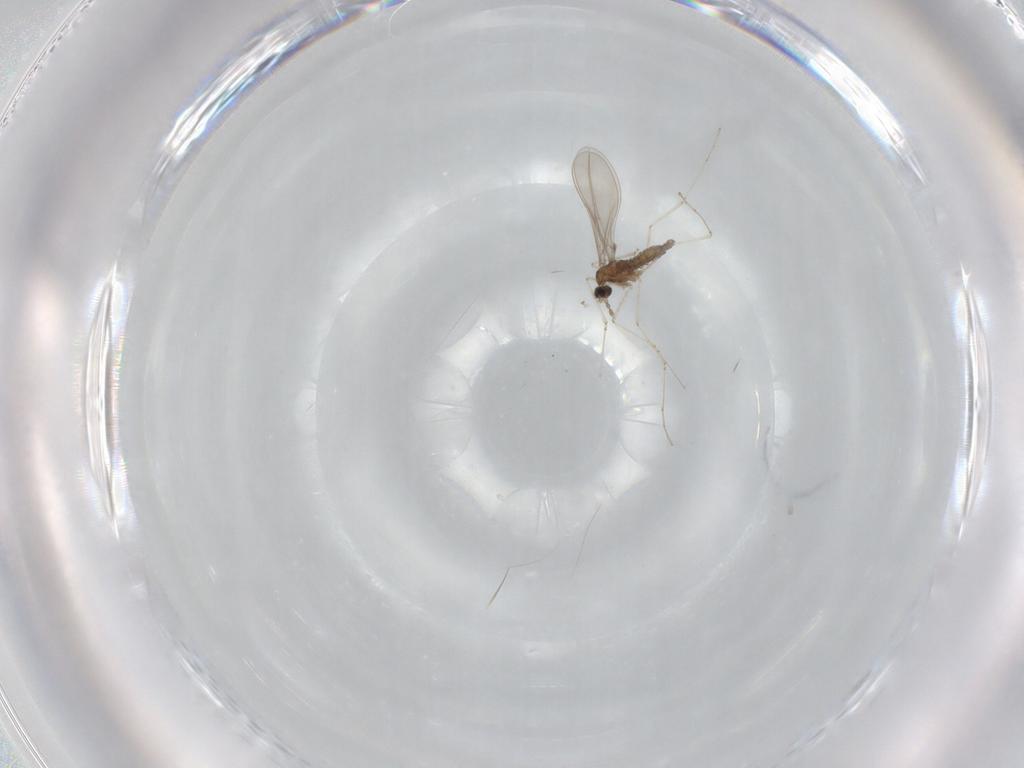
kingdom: Animalia
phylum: Arthropoda
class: Insecta
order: Diptera
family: Cecidomyiidae
